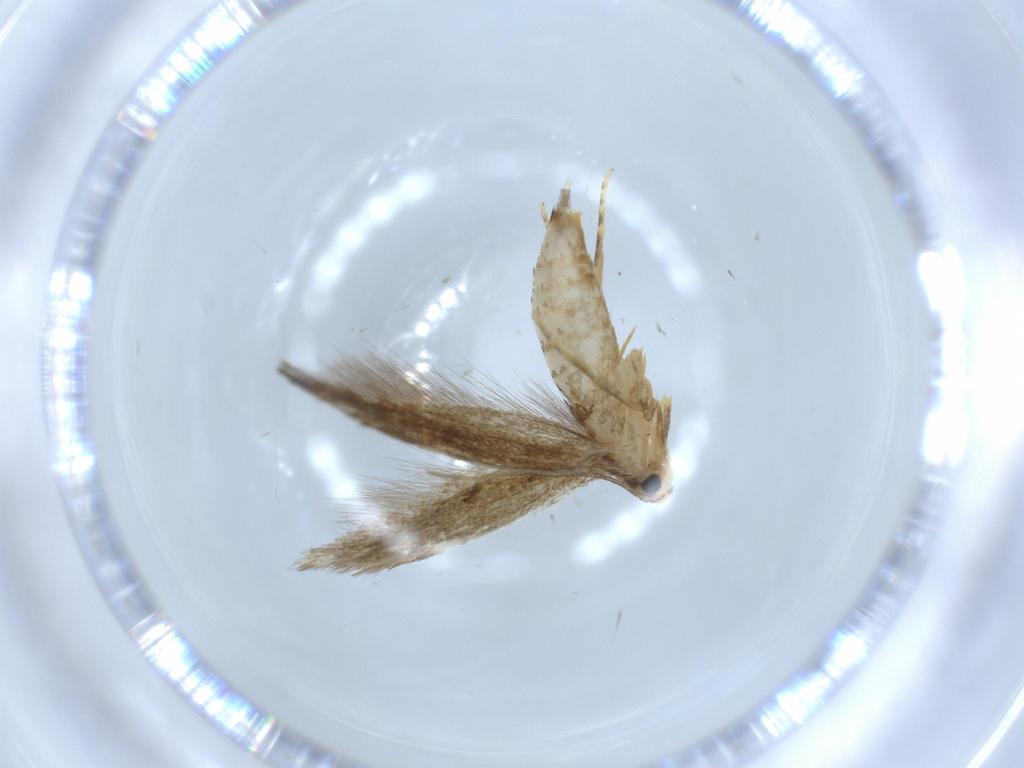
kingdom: Animalia
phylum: Arthropoda
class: Insecta
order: Lepidoptera
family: Tineidae
